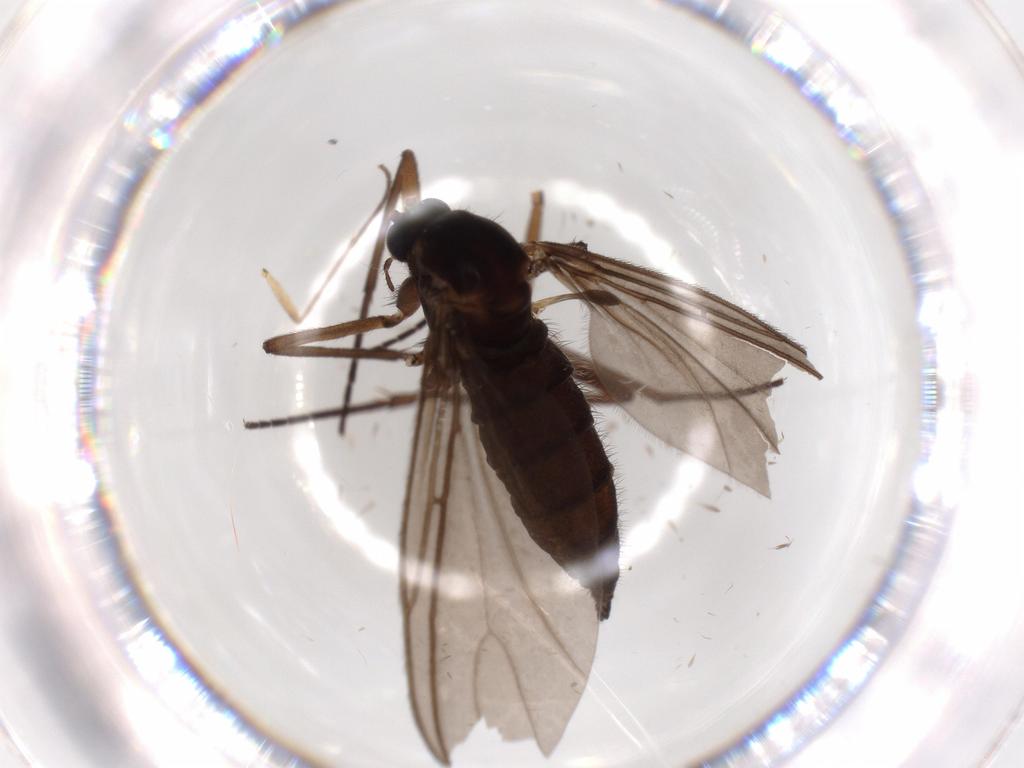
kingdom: Animalia
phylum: Arthropoda
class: Insecta
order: Diptera
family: Sciaridae
